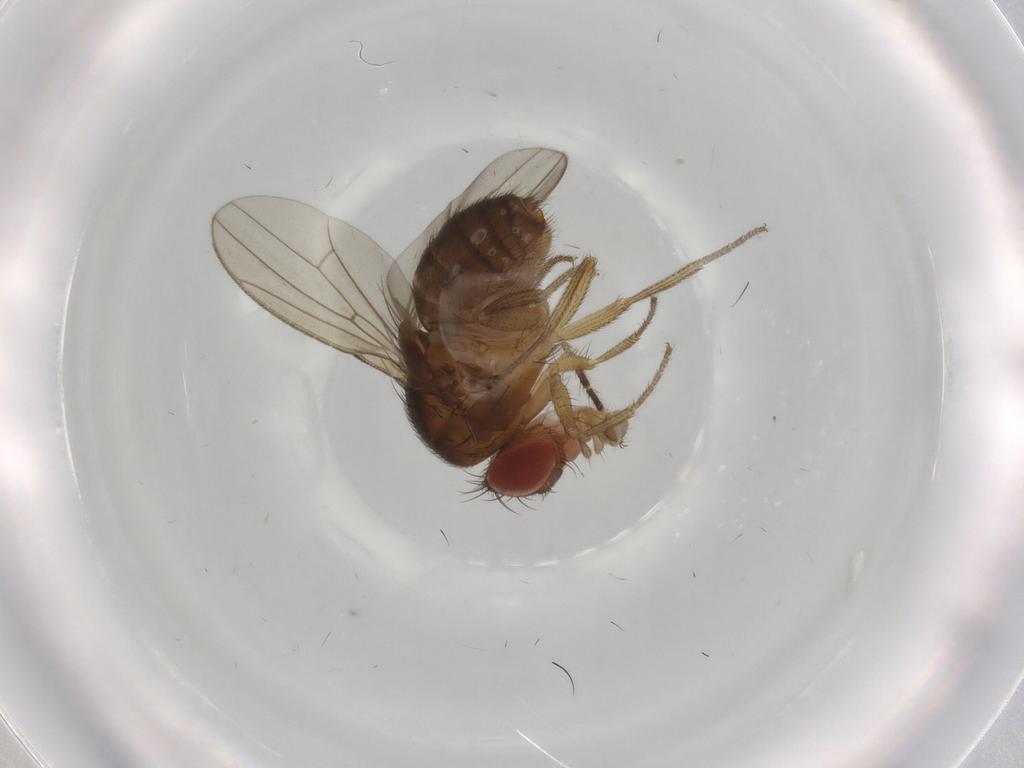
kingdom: Animalia
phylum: Arthropoda
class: Insecta
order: Diptera
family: Drosophilidae
